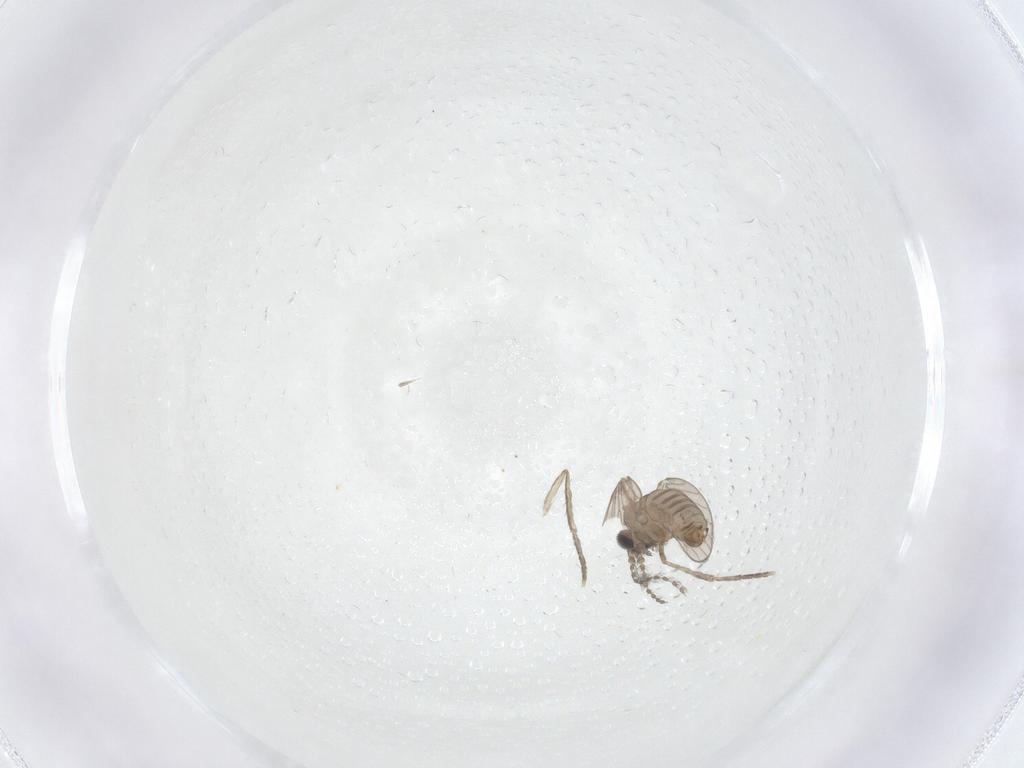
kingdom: Animalia
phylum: Arthropoda
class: Insecta
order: Diptera
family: Psychodidae
